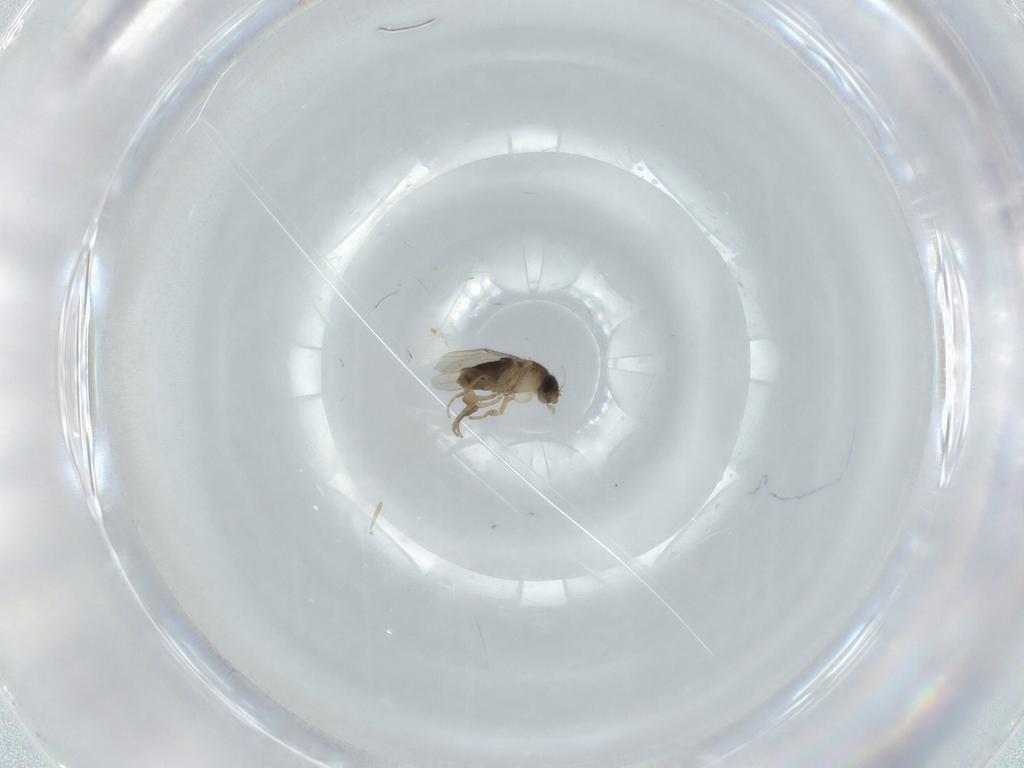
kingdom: Animalia
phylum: Arthropoda
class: Insecta
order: Diptera
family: Phoridae
